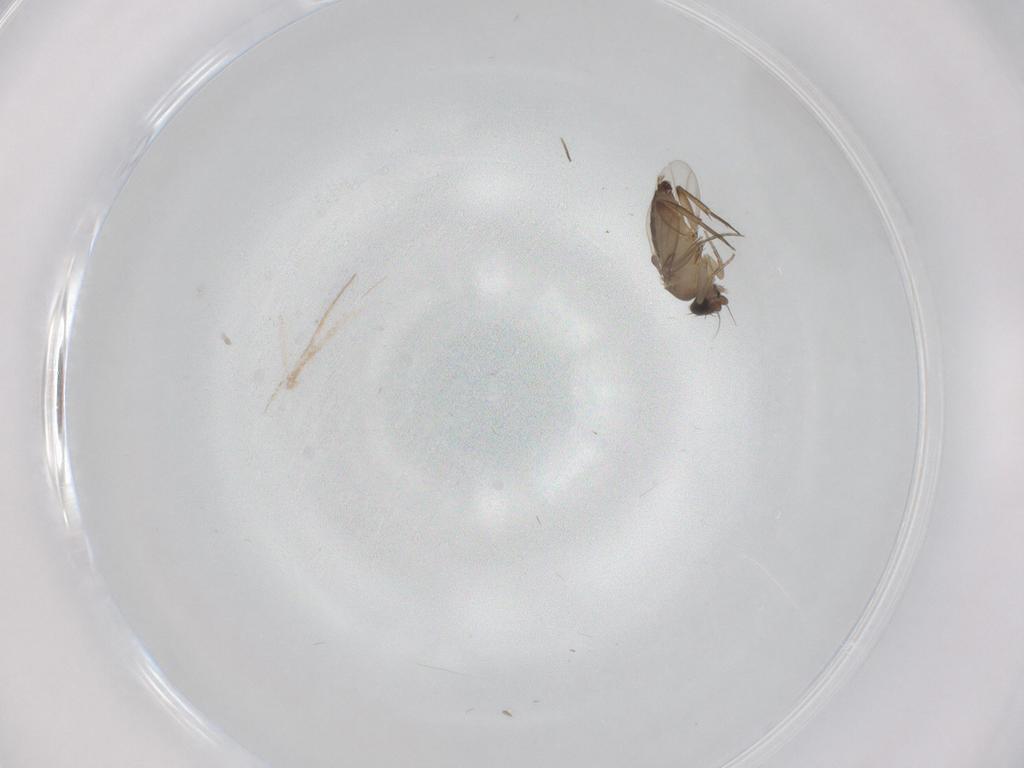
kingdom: Animalia
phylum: Arthropoda
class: Insecta
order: Diptera
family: Phoridae
